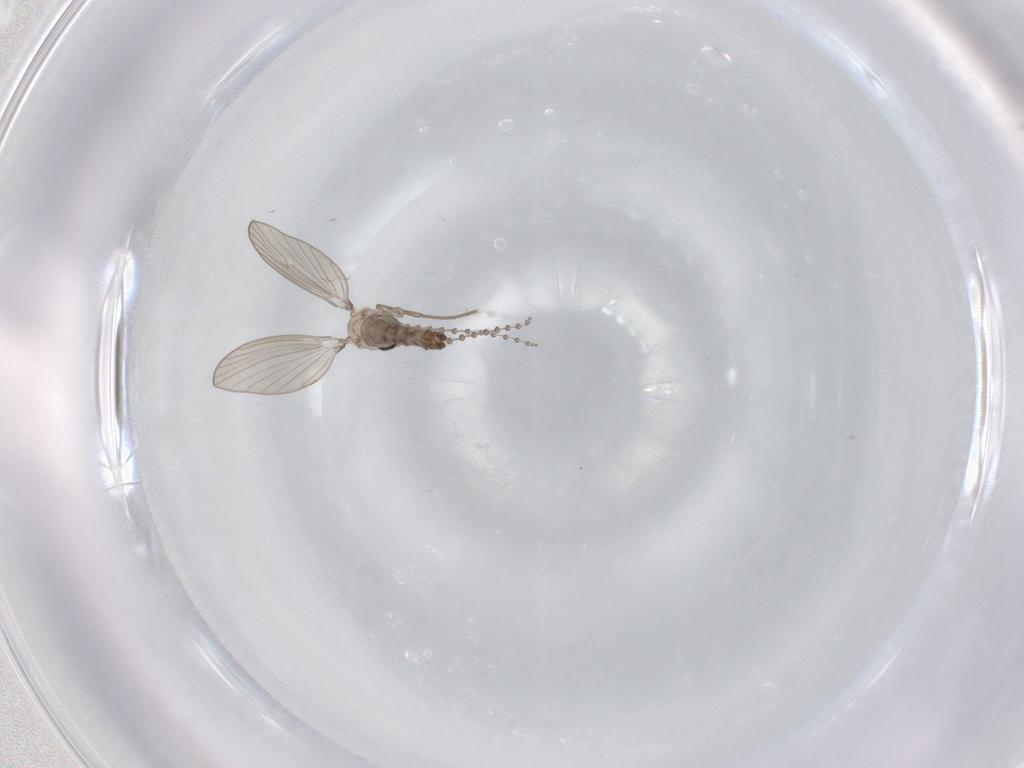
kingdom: Animalia
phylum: Arthropoda
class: Insecta
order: Diptera
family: Psychodidae
